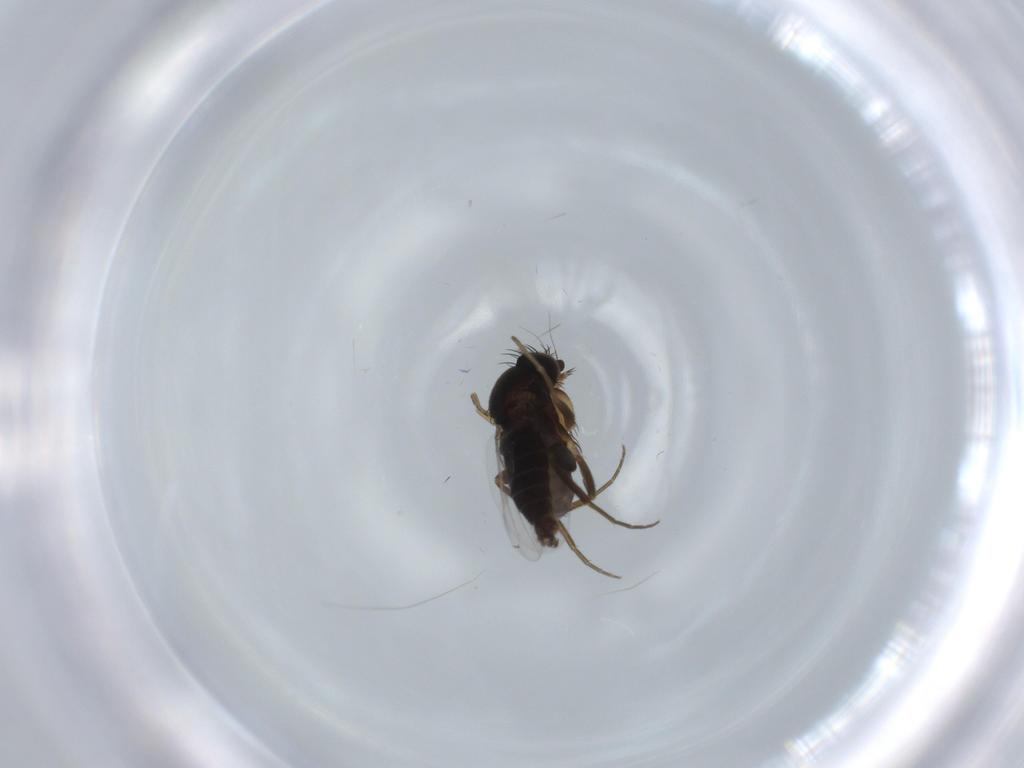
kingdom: Animalia
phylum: Arthropoda
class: Insecta
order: Diptera
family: Phoridae
